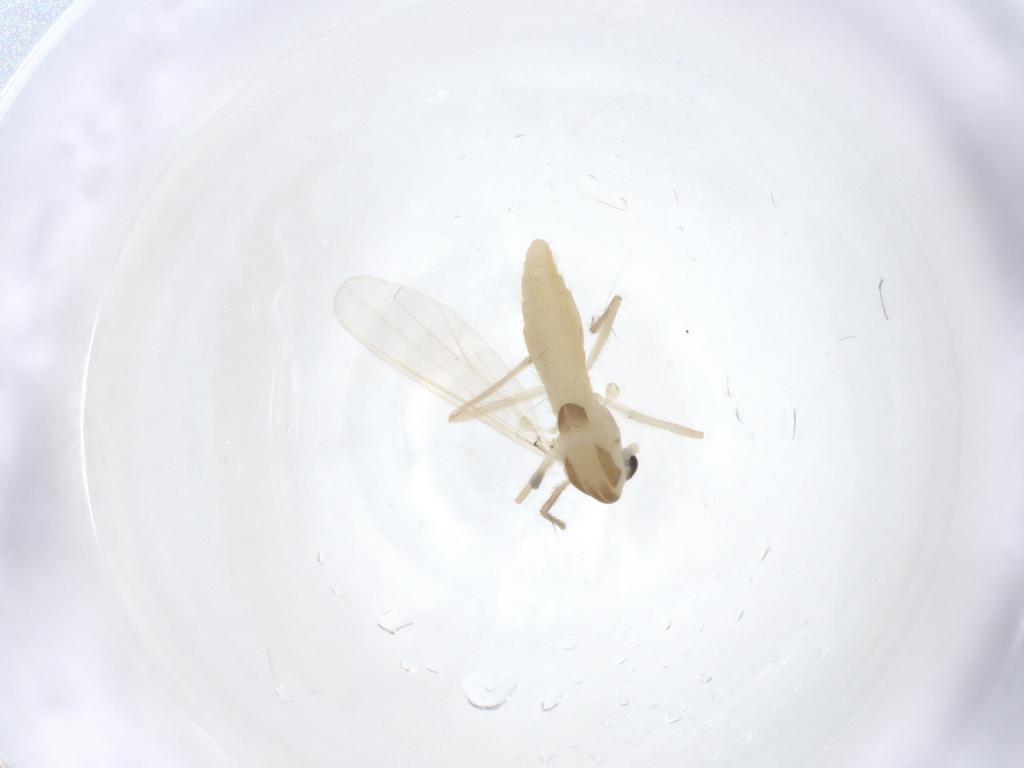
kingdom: Animalia
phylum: Arthropoda
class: Insecta
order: Diptera
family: Chironomidae
